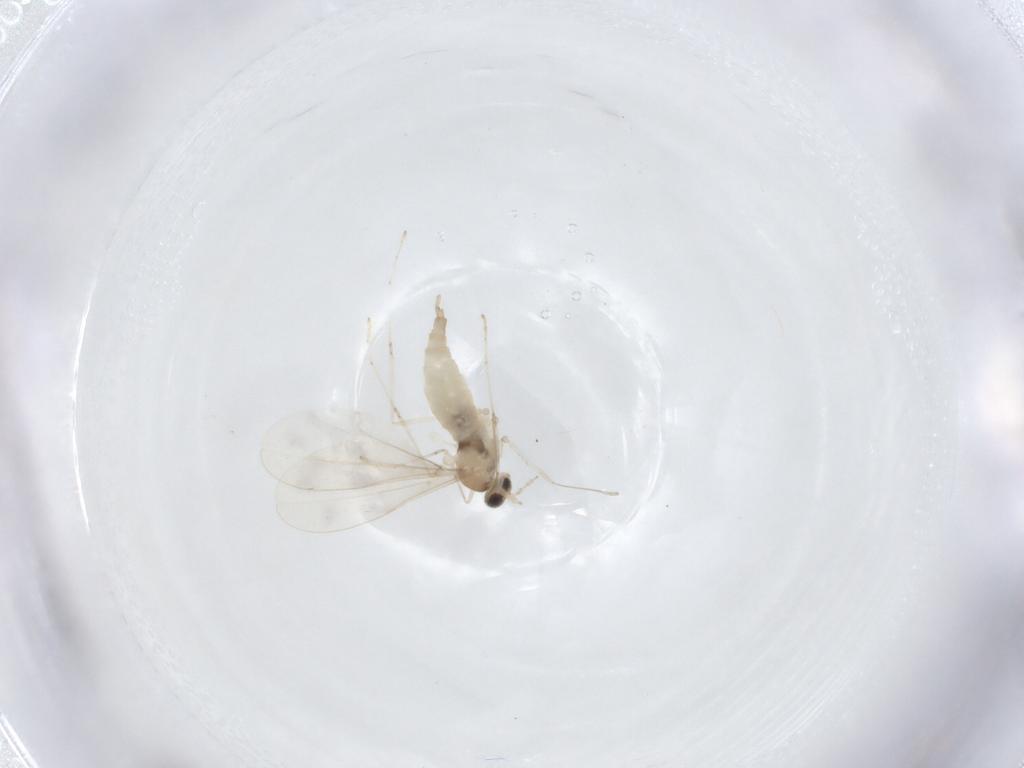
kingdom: Animalia
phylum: Arthropoda
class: Insecta
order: Diptera
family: Cecidomyiidae
